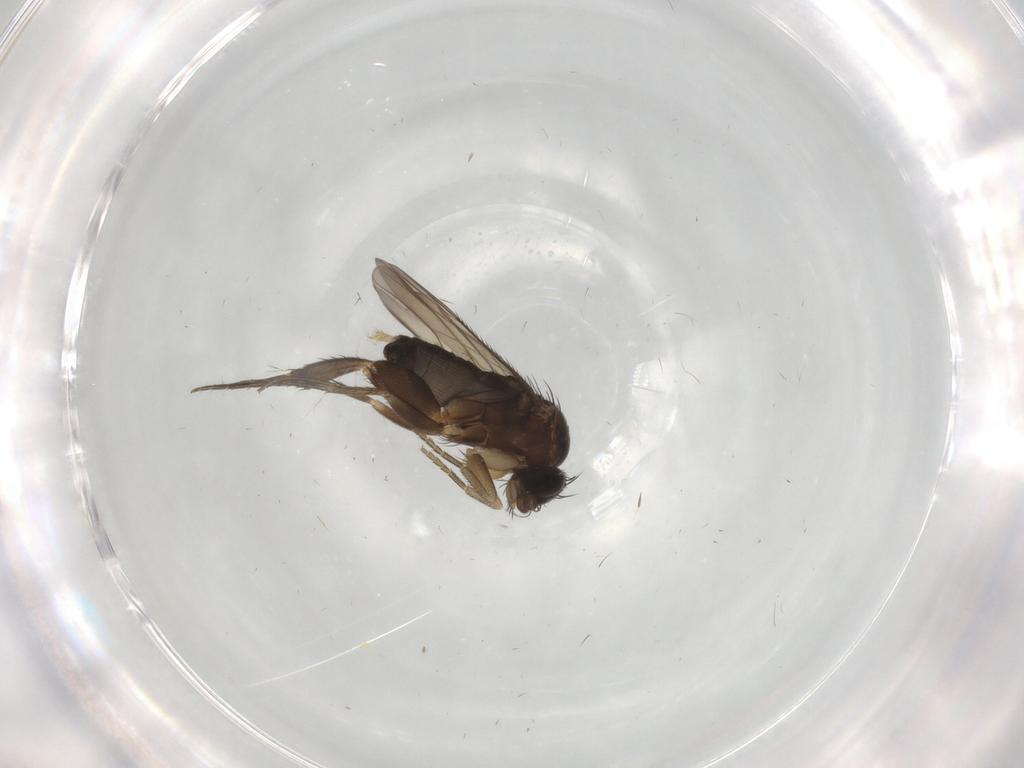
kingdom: Animalia
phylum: Arthropoda
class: Insecta
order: Diptera
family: Phoridae
